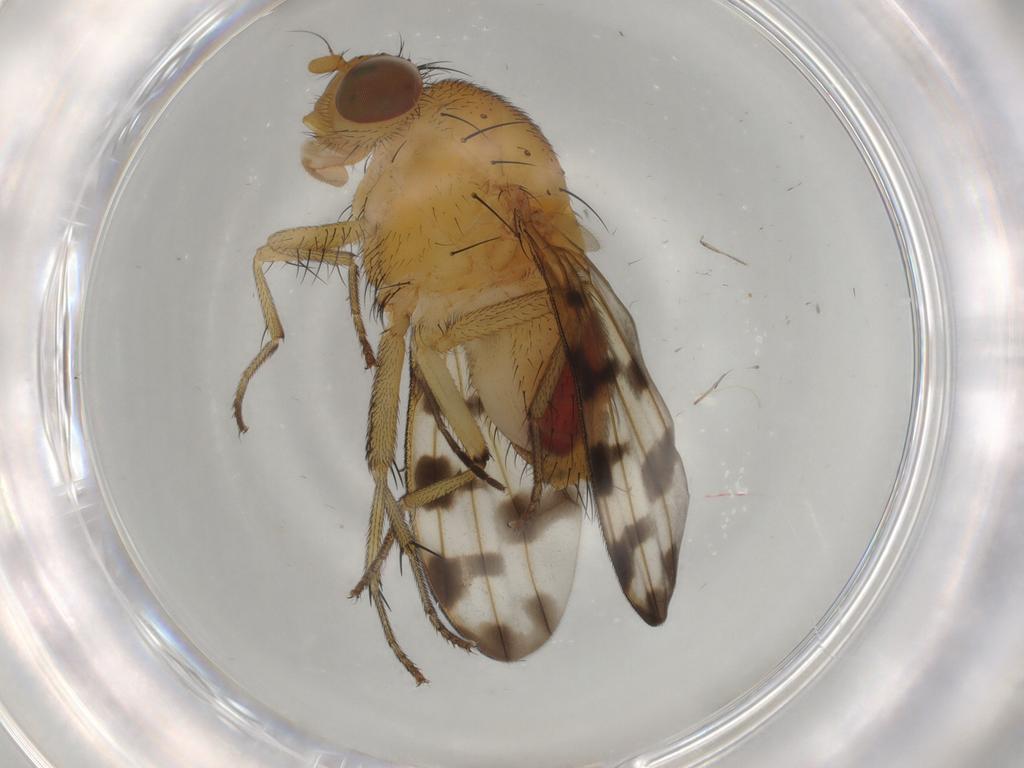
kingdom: Animalia
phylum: Arthropoda
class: Insecta
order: Diptera
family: Mycetophilidae
